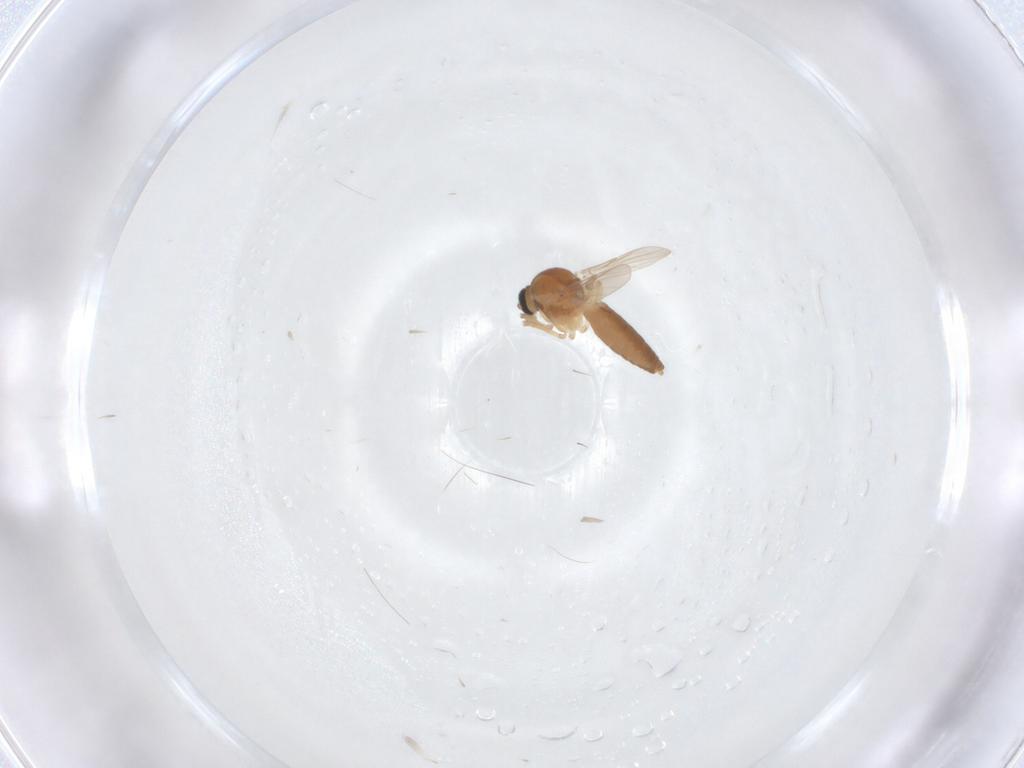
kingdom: Animalia
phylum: Arthropoda
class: Insecta
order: Diptera
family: Ceratopogonidae
